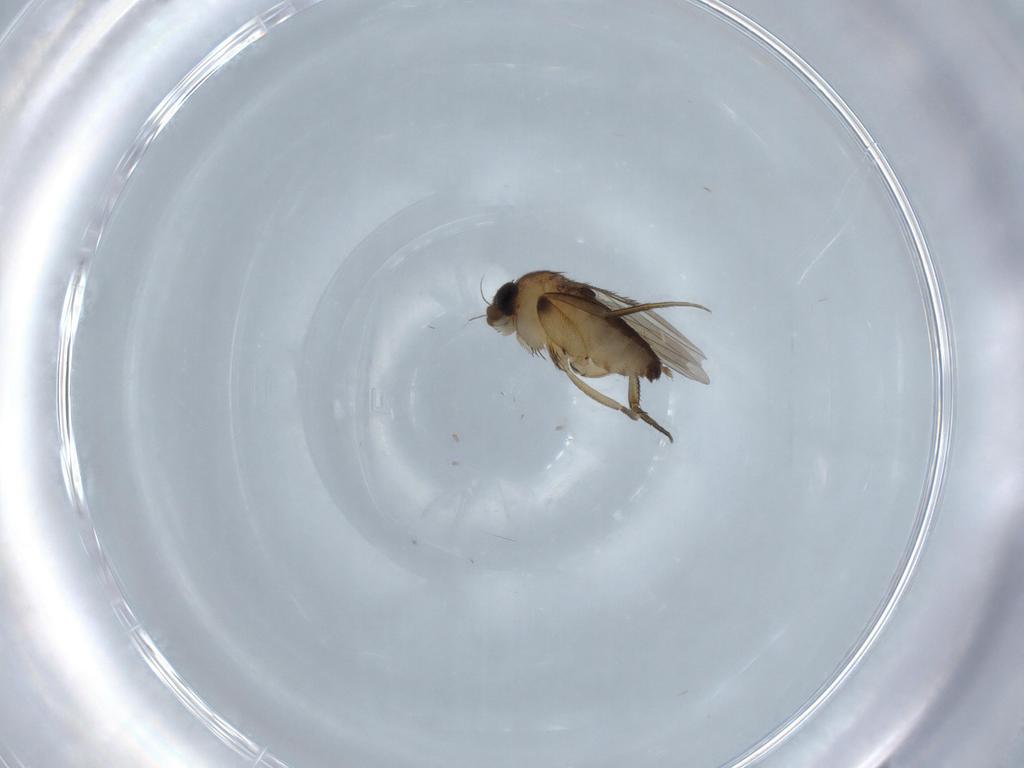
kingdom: Animalia
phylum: Arthropoda
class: Insecta
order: Diptera
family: Phoridae
